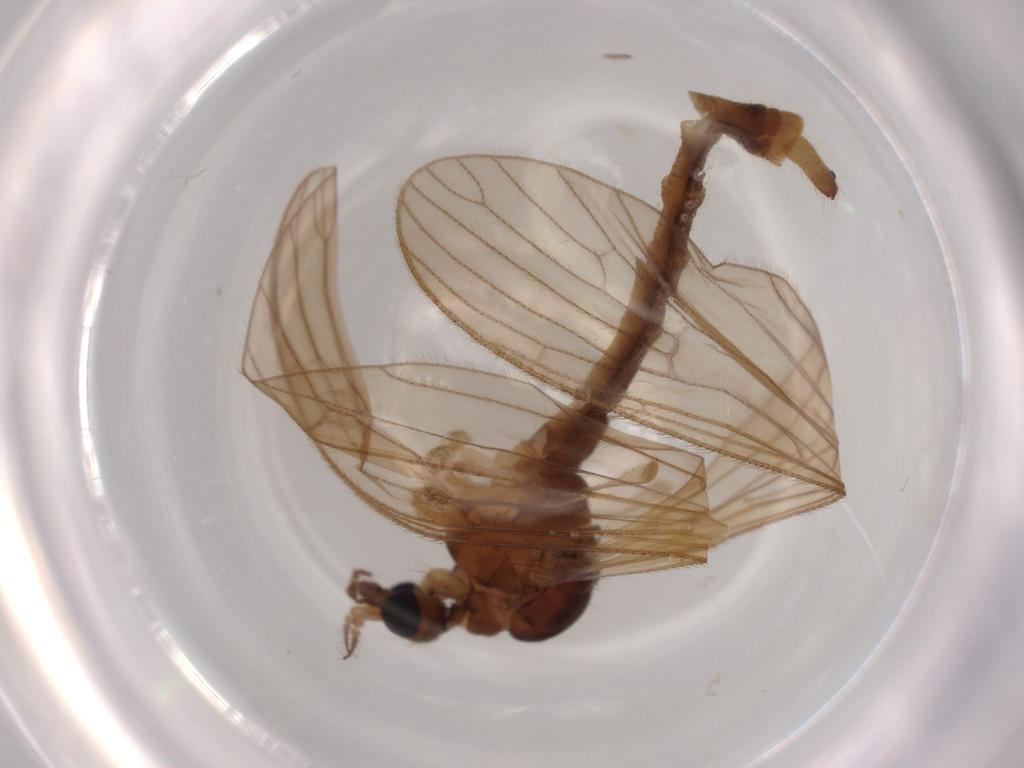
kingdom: Animalia
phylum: Arthropoda
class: Insecta
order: Diptera
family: Limoniidae
